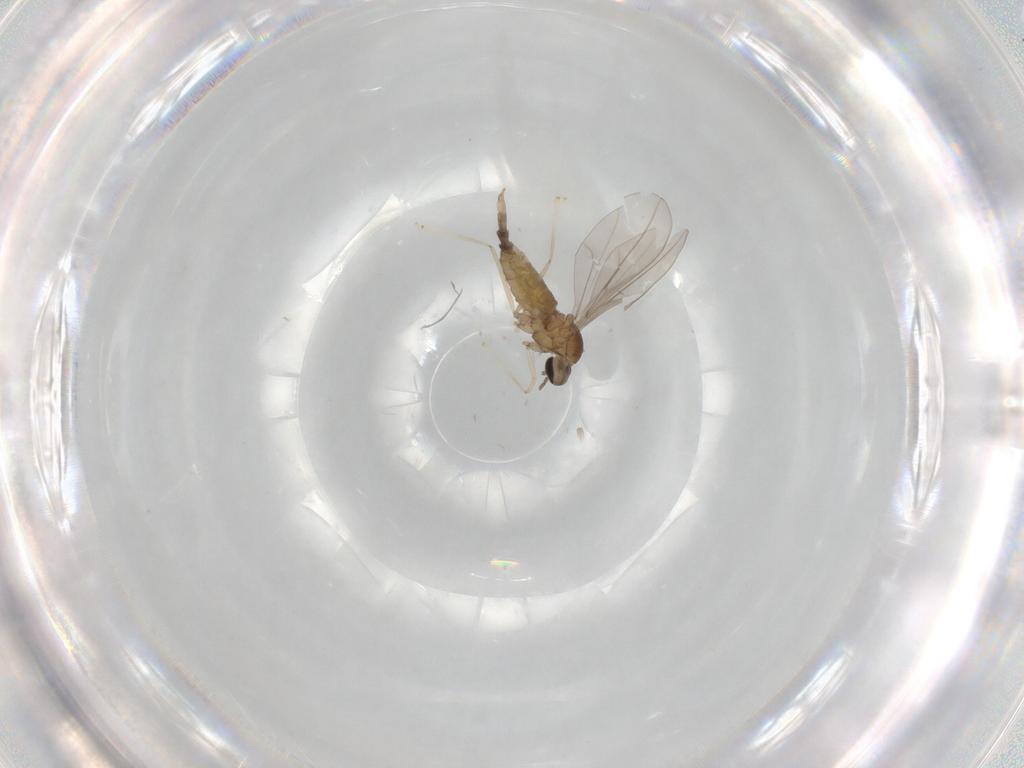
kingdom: Animalia
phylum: Arthropoda
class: Insecta
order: Diptera
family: Cecidomyiidae
